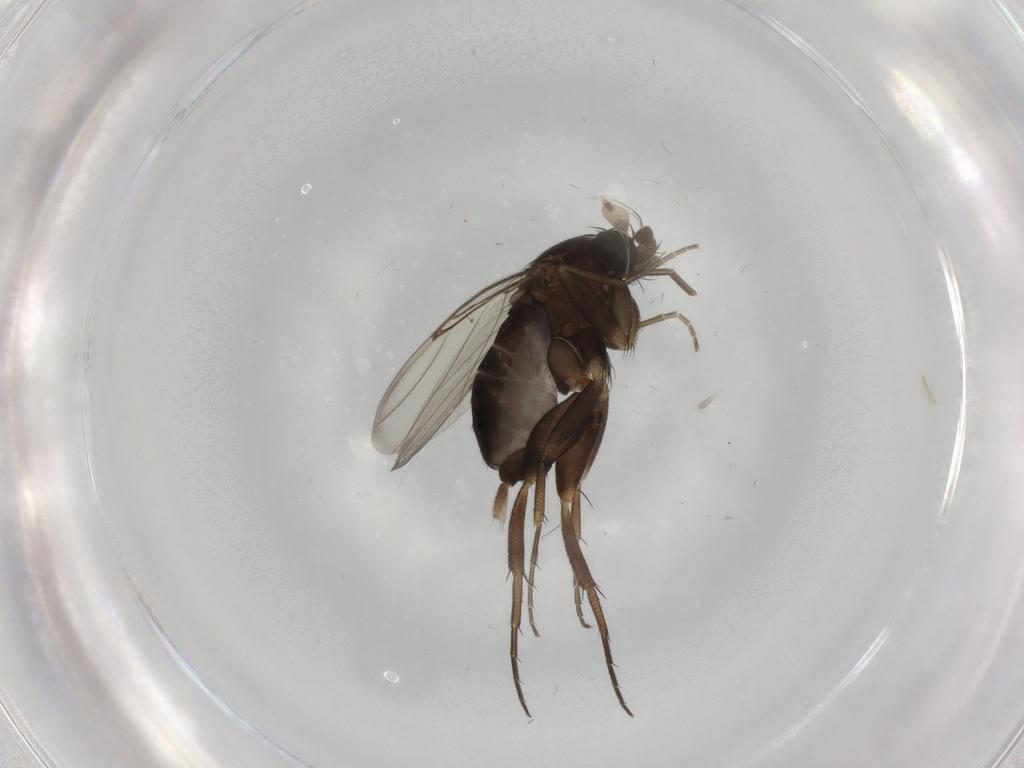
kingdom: Animalia
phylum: Arthropoda
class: Insecta
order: Diptera
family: Phoridae
